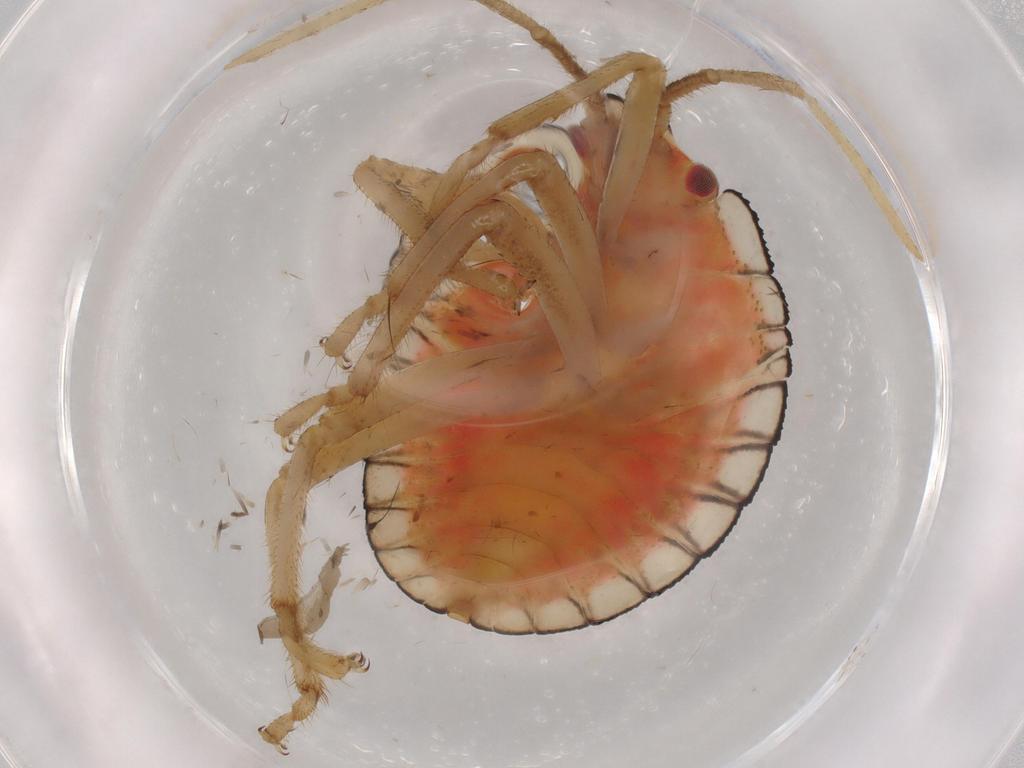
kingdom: Animalia
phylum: Arthropoda
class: Insecta
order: Hemiptera
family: Pentatomidae
